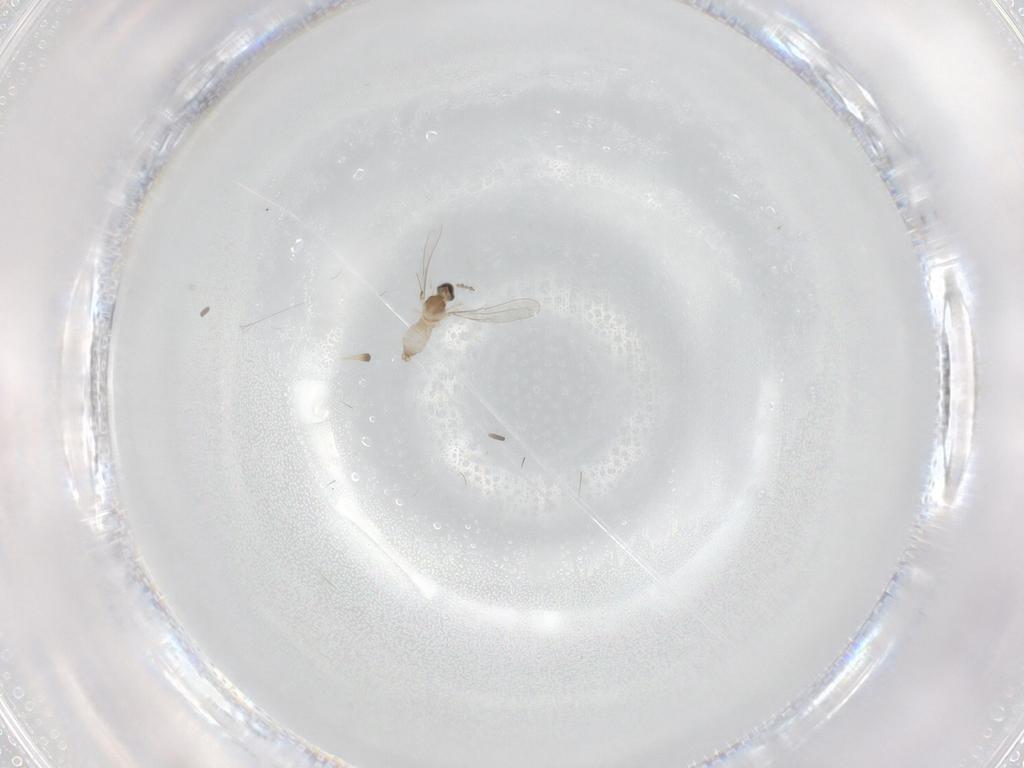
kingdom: Animalia
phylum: Arthropoda
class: Insecta
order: Diptera
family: Cecidomyiidae
